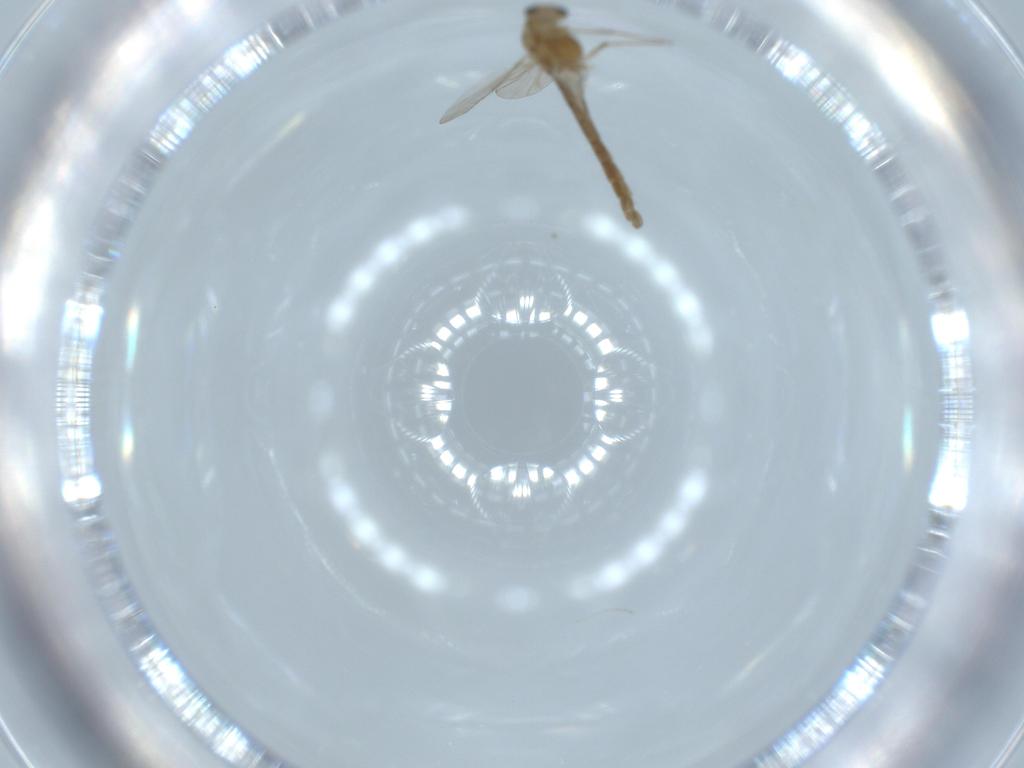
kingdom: Animalia
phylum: Arthropoda
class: Insecta
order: Diptera
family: Chironomidae
